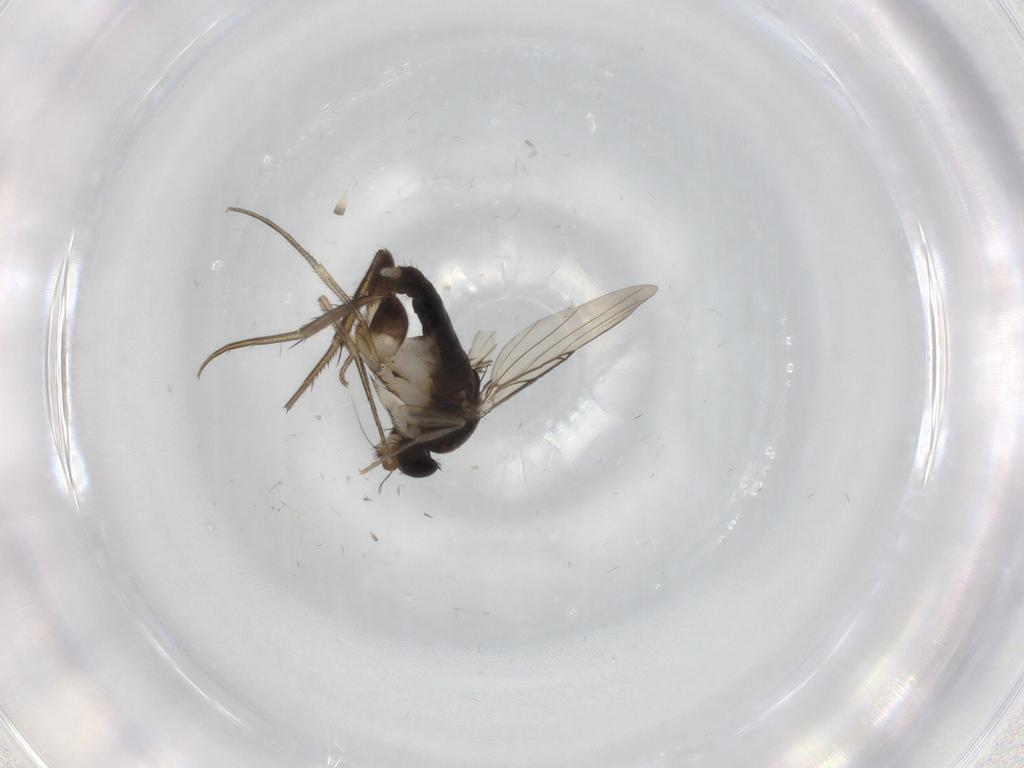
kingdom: Animalia
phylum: Arthropoda
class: Insecta
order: Diptera
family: Phoridae
